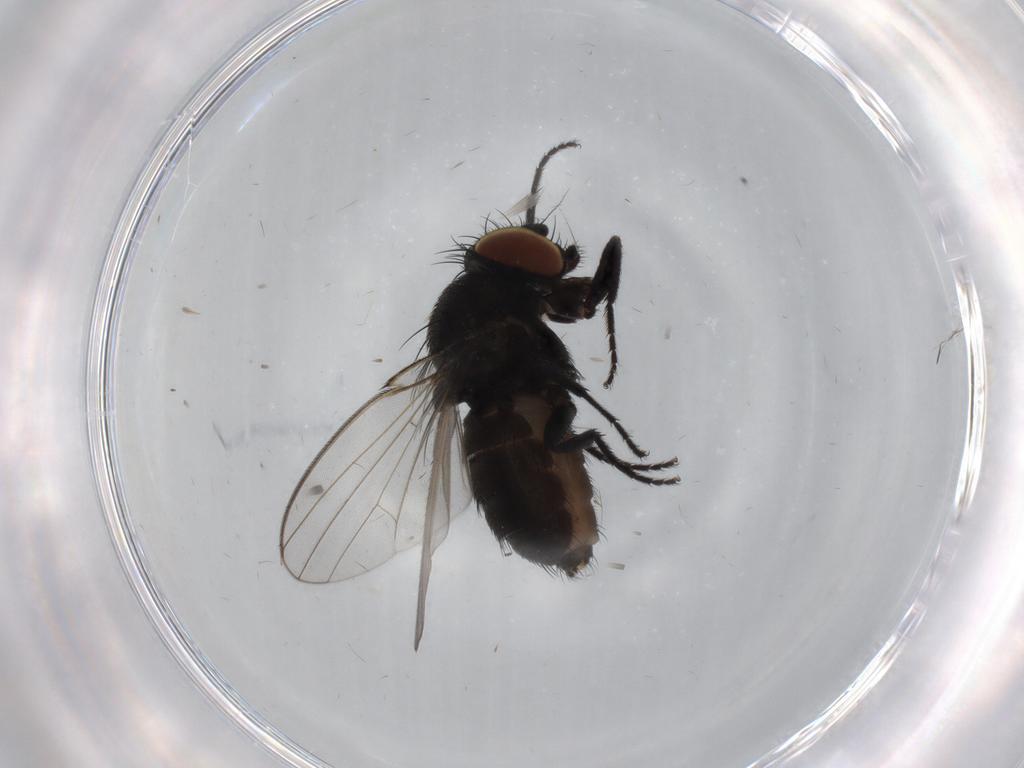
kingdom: Animalia
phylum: Arthropoda
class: Insecta
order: Diptera
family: Milichiidae
